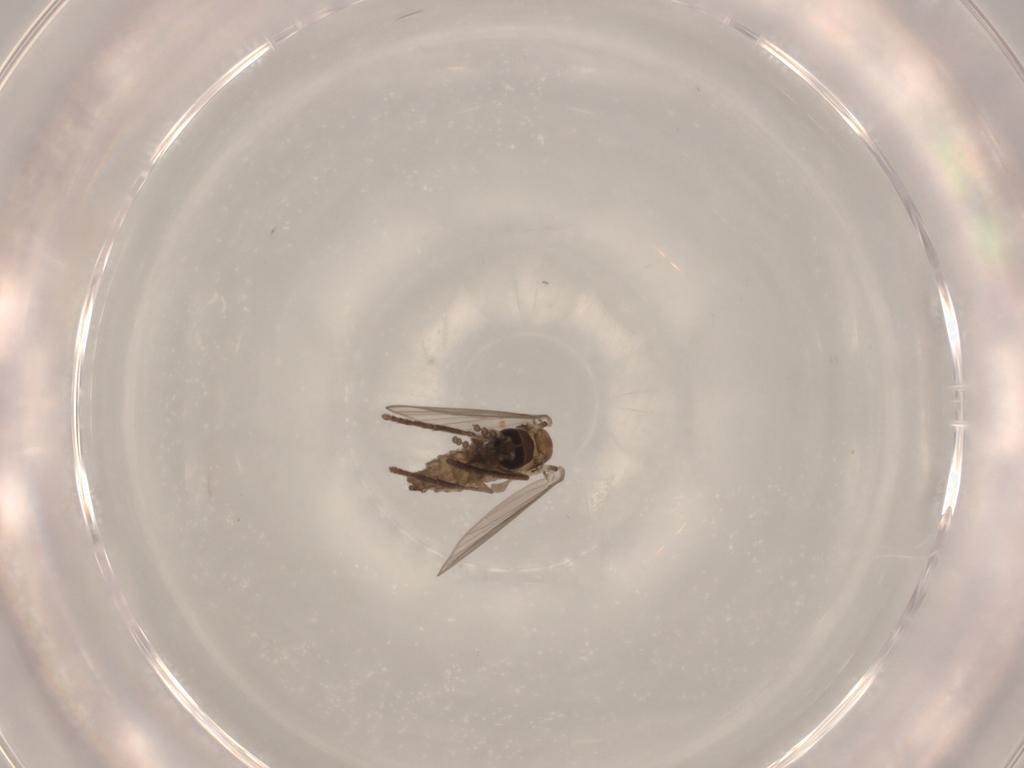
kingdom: Animalia
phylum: Arthropoda
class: Insecta
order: Diptera
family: Psychodidae
